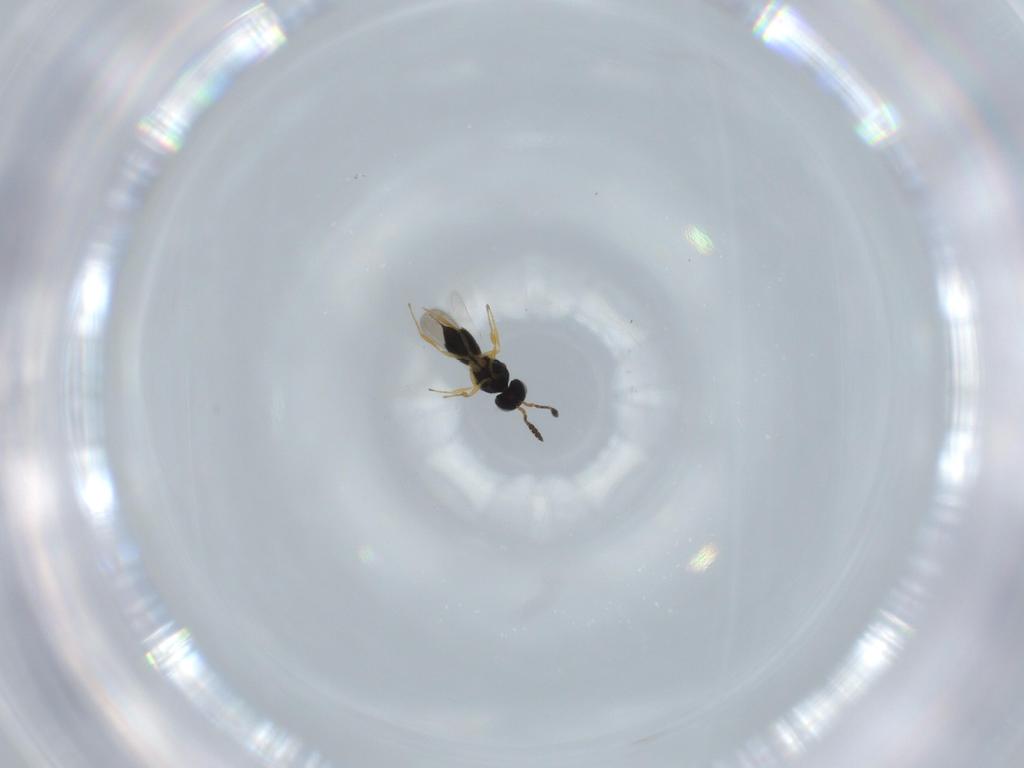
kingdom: Animalia
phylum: Arthropoda
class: Insecta
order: Hymenoptera
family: Scelionidae
